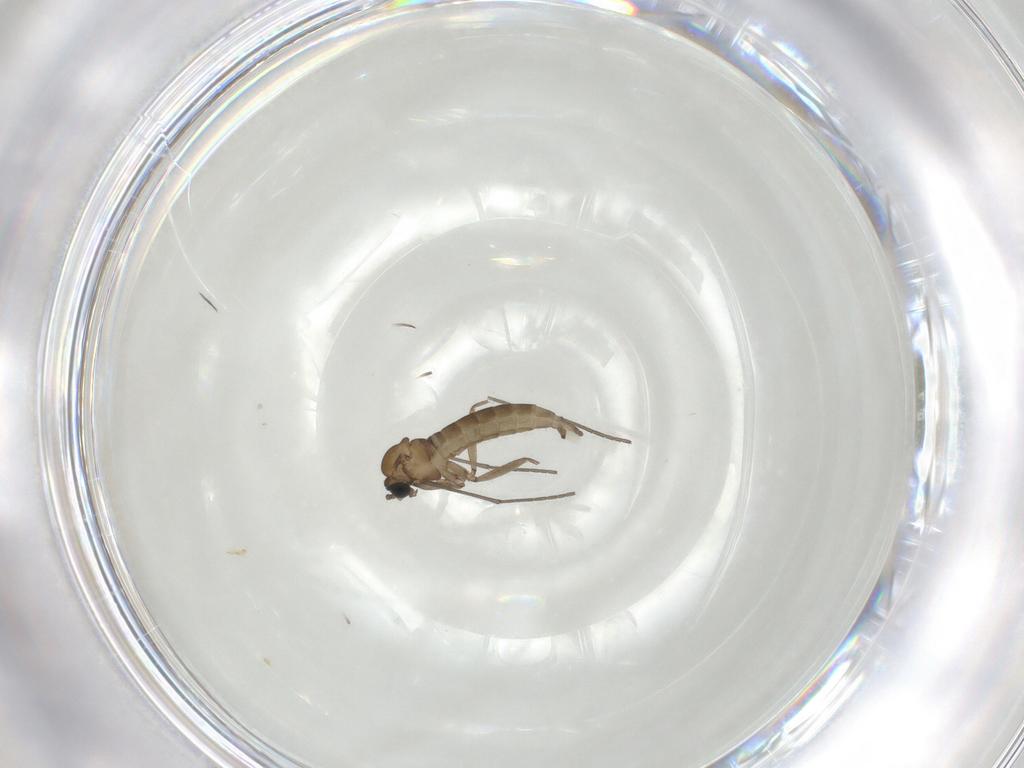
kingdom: Animalia
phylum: Arthropoda
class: Insecta
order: Diptera
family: Sciaridae
